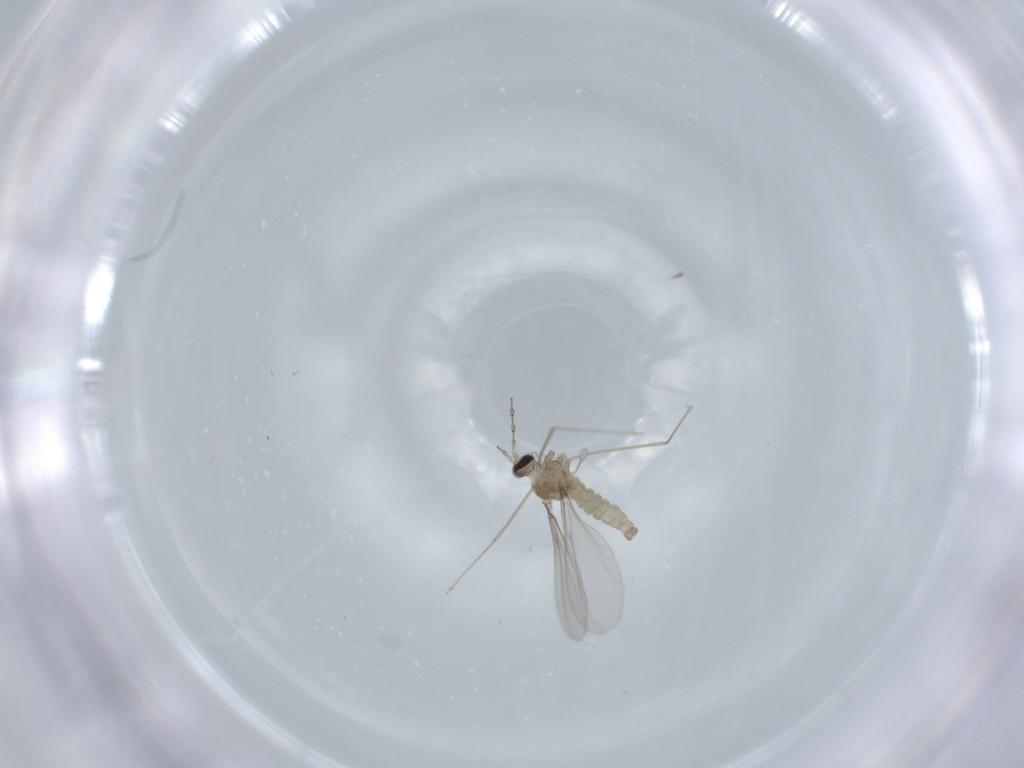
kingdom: Animalia
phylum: Arthropoda
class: Insecta
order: Diptera
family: Cecidomyiidae
